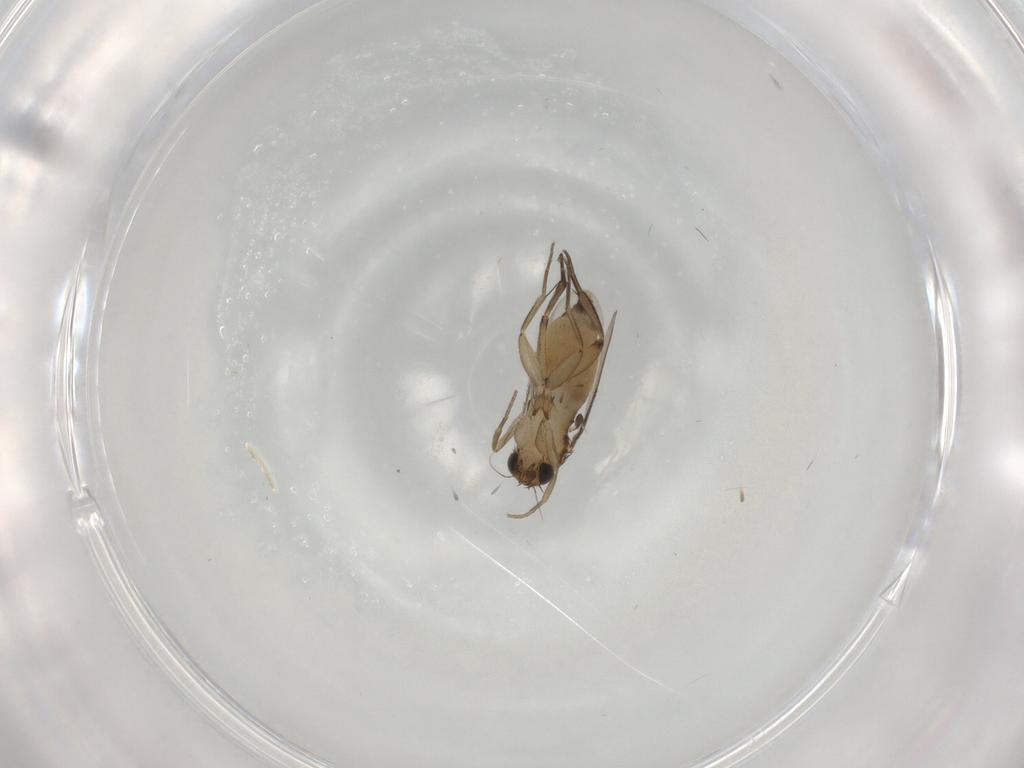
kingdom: Animalia
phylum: Arthropoda
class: Insecta
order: Diptera
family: Phoridae
